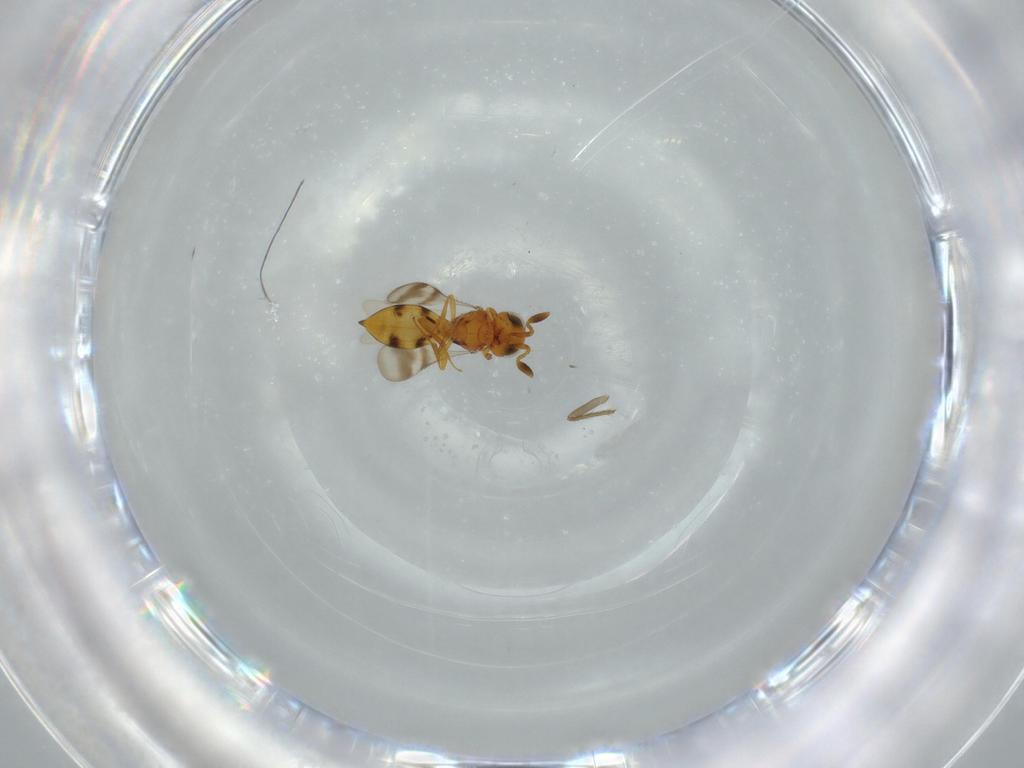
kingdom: Animalia
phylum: Arthropoda
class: Insecta
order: Hymenoptera
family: Scelionidae
